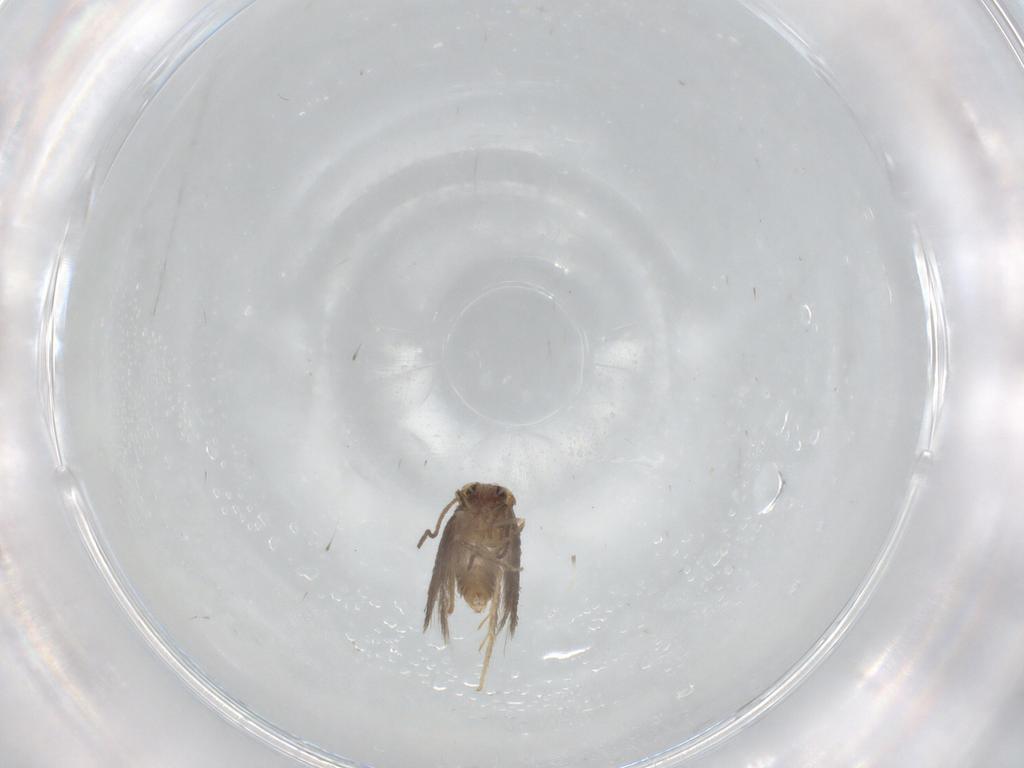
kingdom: Animalia
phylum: Arthropoda
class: Insecta
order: Lepidoptera
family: Nepticulidae
